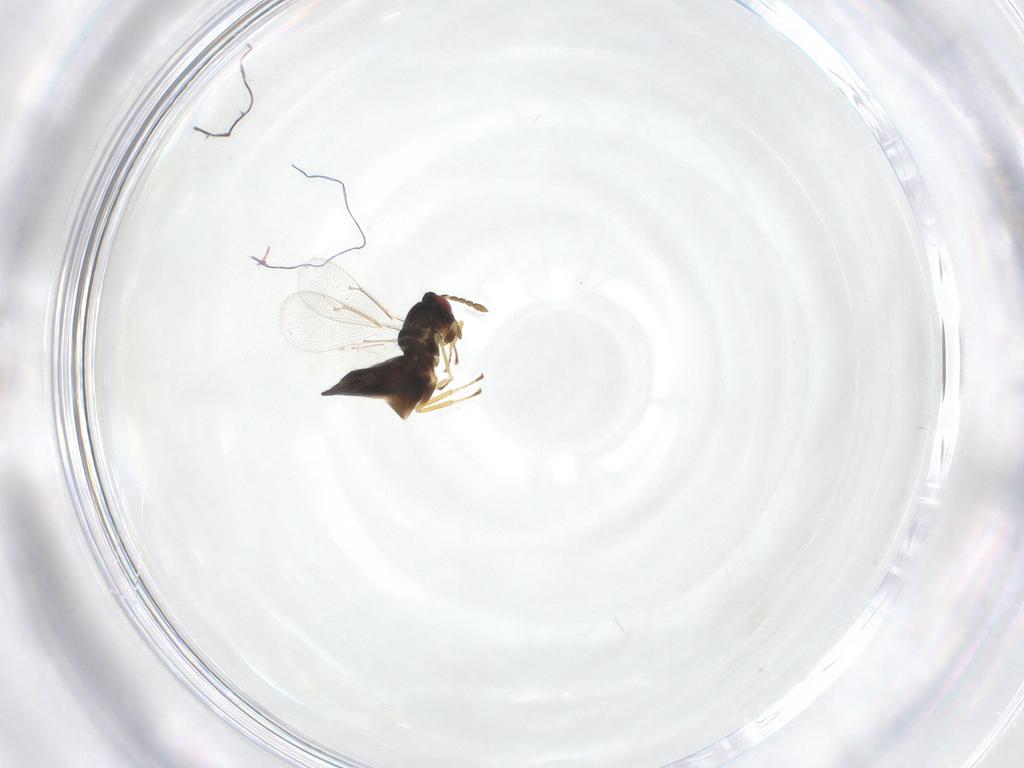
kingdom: Animalia
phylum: Arthropoda
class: Insecta
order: Hymenoptera
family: Eulophidae
